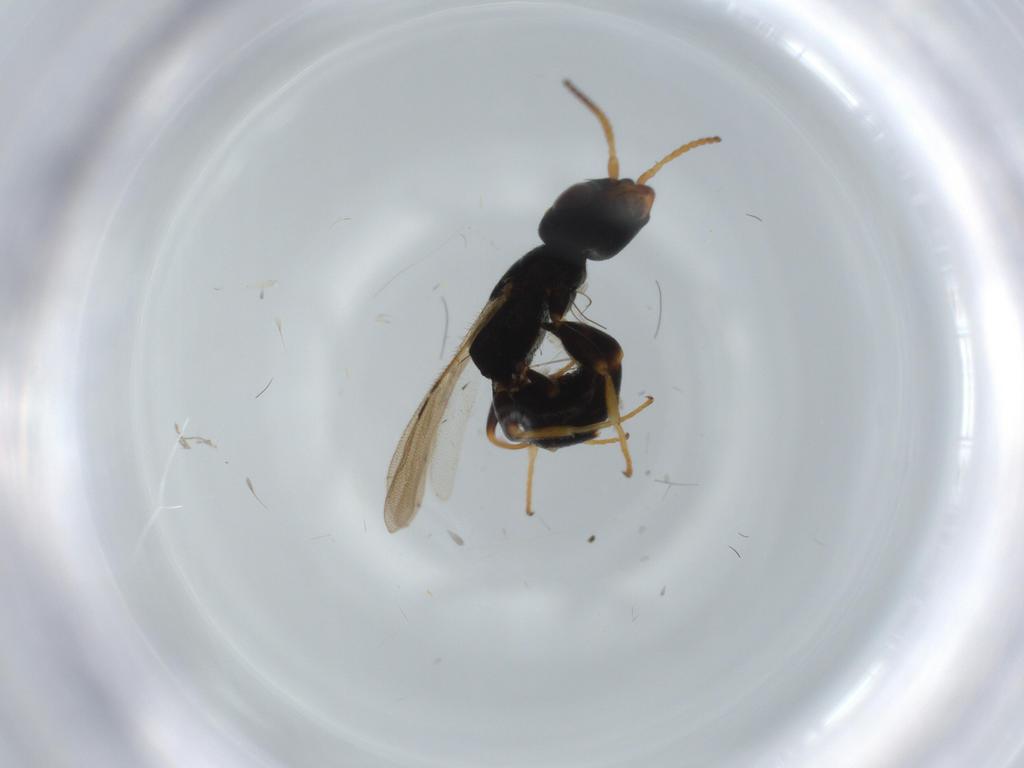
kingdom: Animalia
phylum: Arthropoda
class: Insecta
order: Hymenoptera
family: Bethylidae
